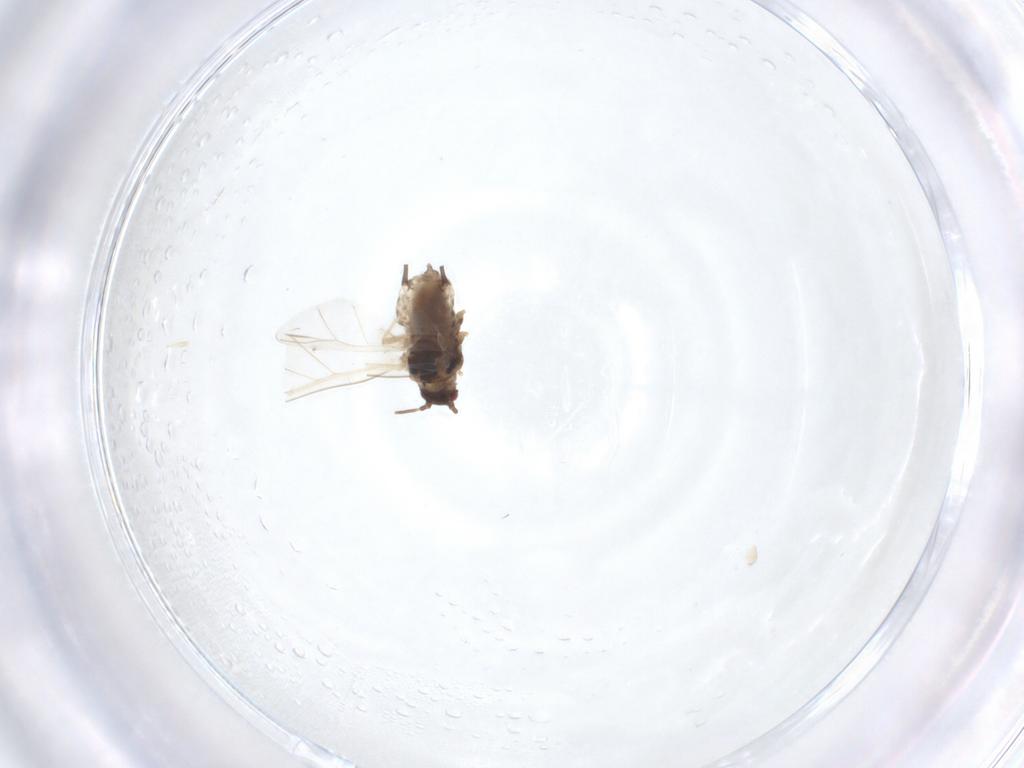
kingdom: Animalia
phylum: Arthropoda
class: Insecta
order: Hemiptera
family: Aphididae
